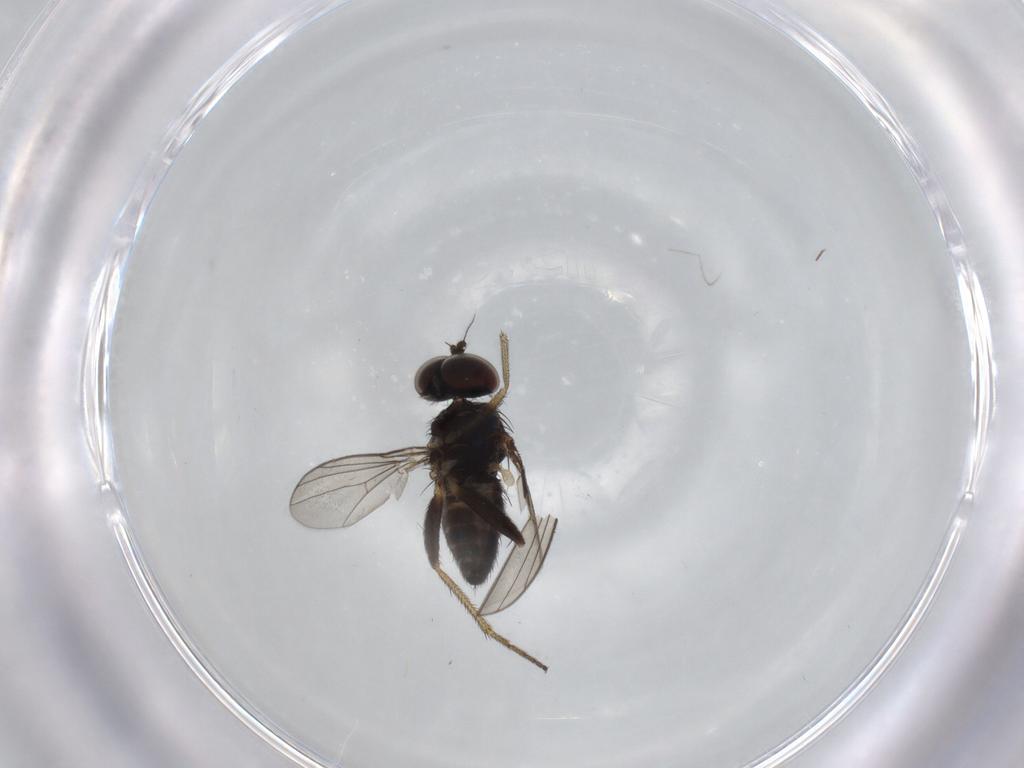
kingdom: Animalia
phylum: Arthropoda
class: Insecta
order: Diptera
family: Dolichopodidae
